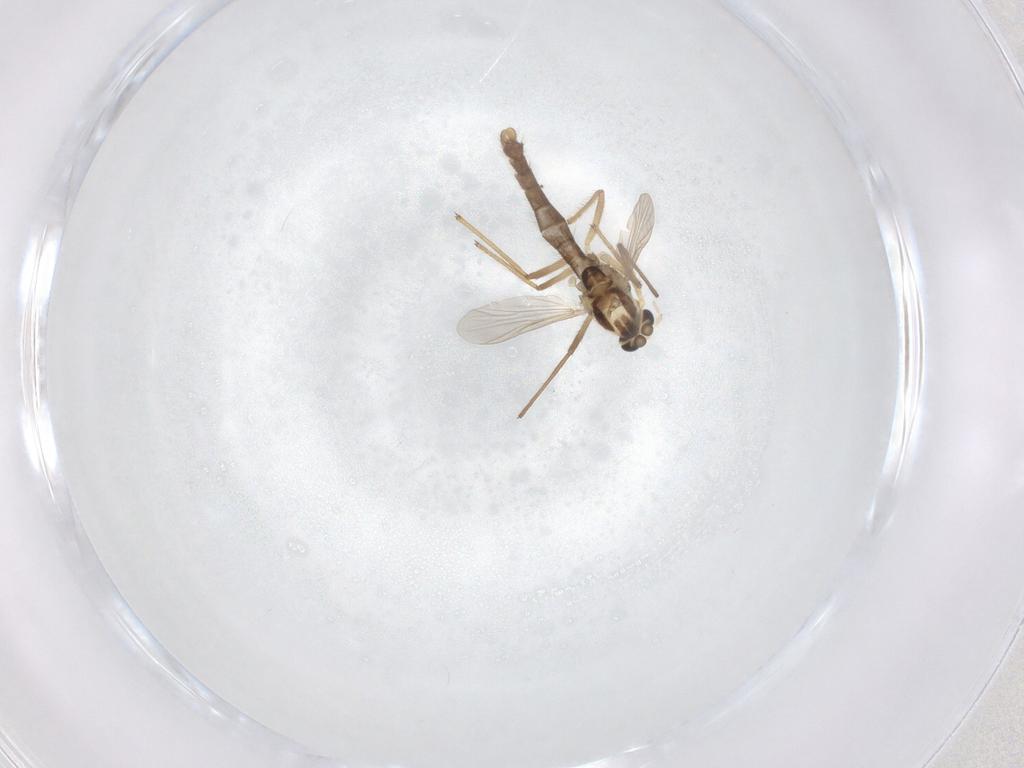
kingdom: Animalia
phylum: Arthropoda
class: Insecta
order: Diptera
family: Chironomidae
